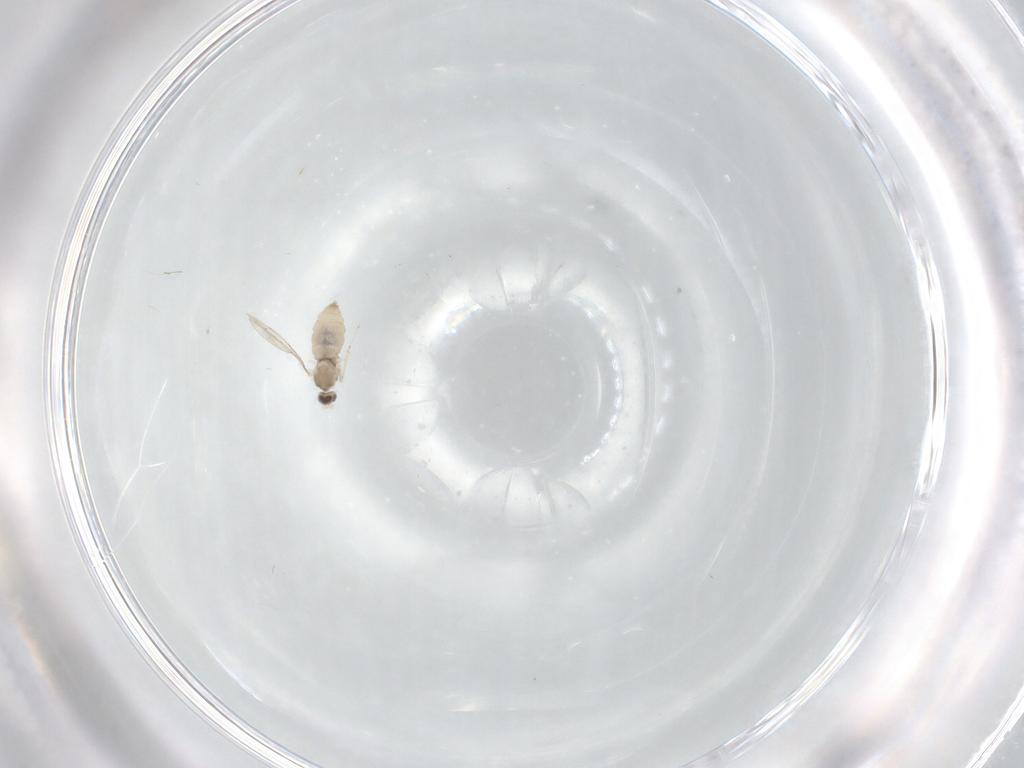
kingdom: Animalia
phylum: Arthropoda
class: Insecta
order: Diptera
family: Cecidomyiidae
